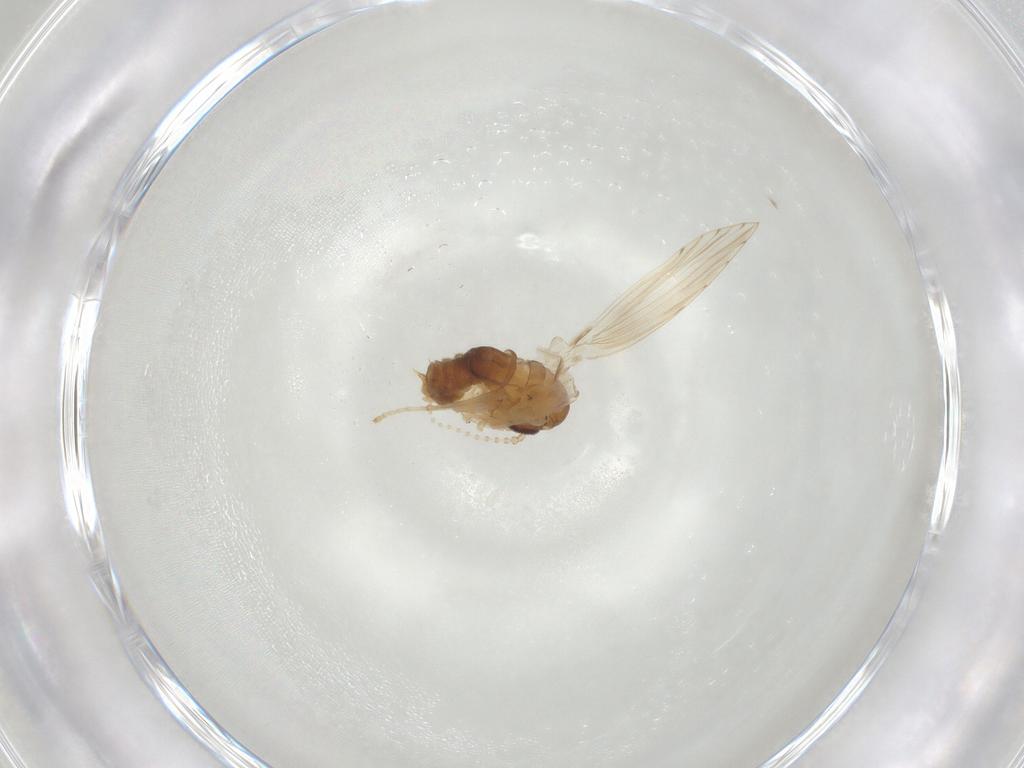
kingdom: Animalia
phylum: Arthropoda
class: Insecta
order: Diptera
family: Psychodidae
